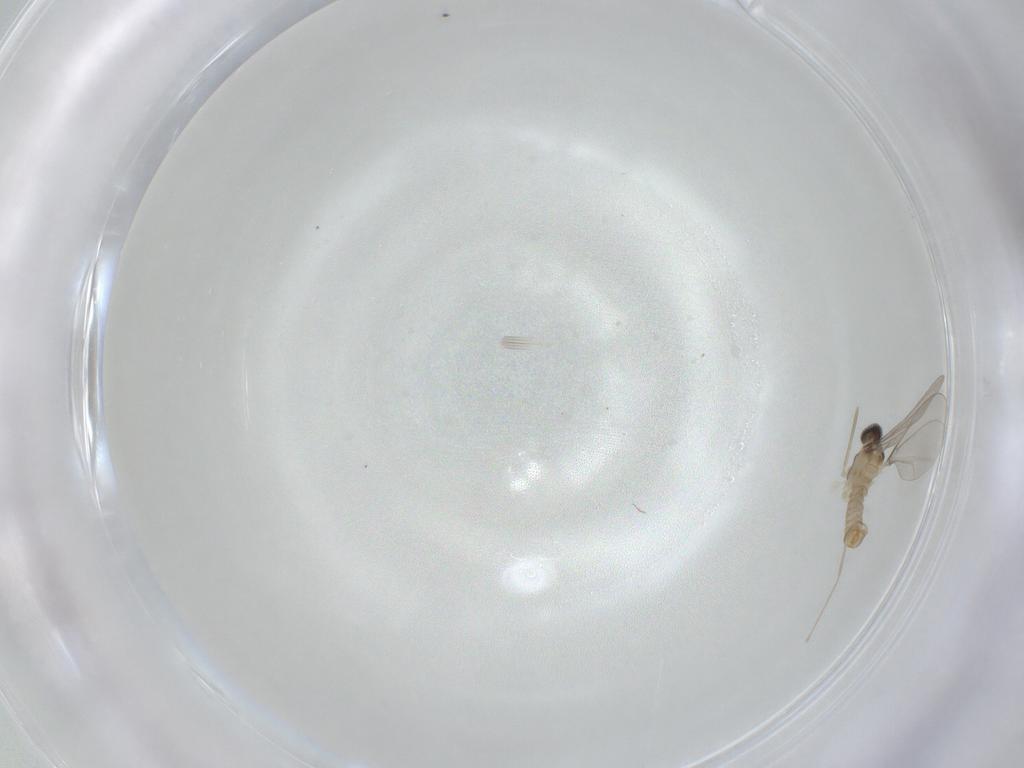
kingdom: Animalia
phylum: Arthropoda
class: Insecta
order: Diptera
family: Cecidomyiidae
